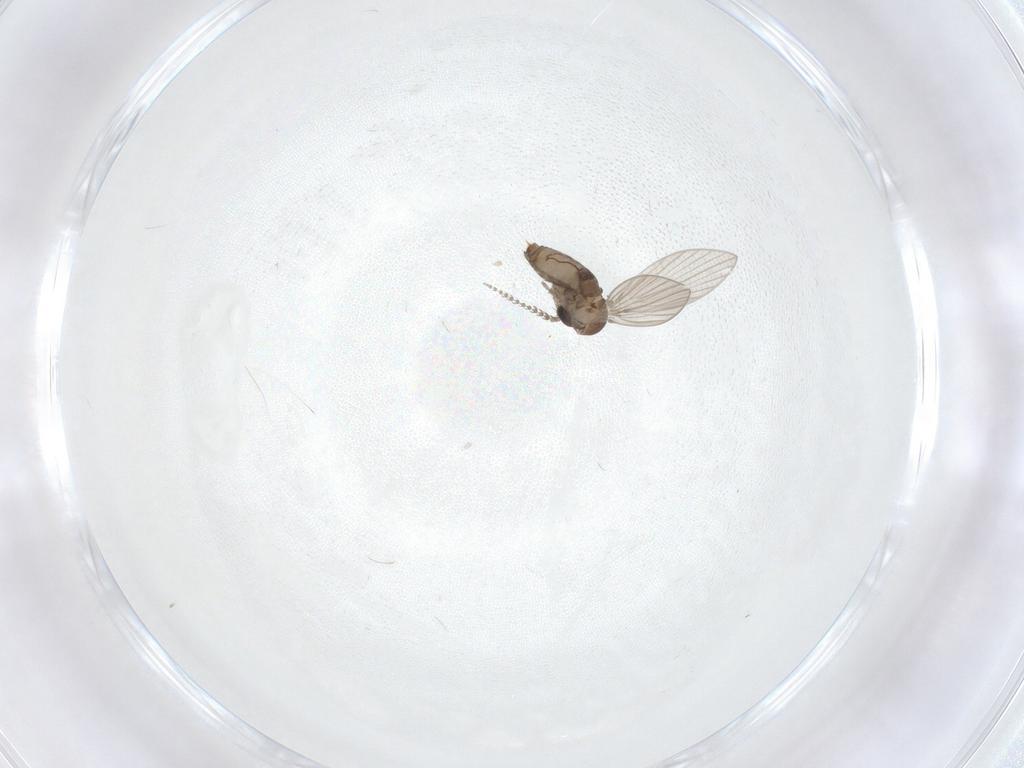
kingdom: Animalia
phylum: Arthropoda
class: Insecta
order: Diptera
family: Psychodidae
